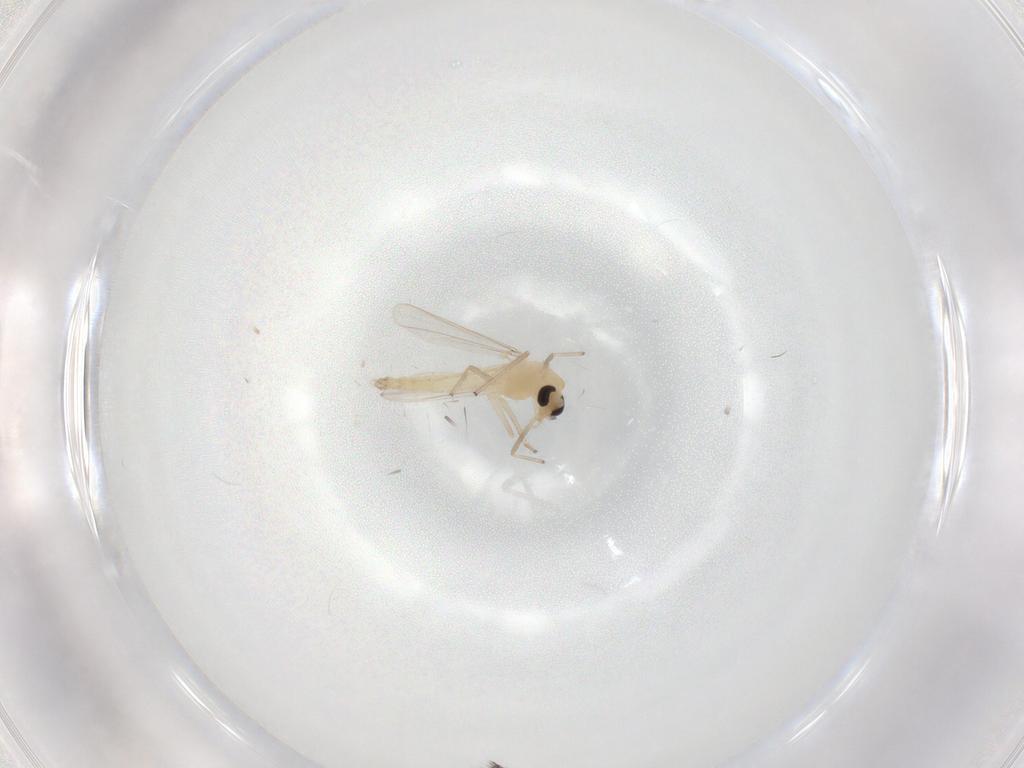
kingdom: Animalia
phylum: Arthropoda
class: Insecta
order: Diptera
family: Chironomidae
